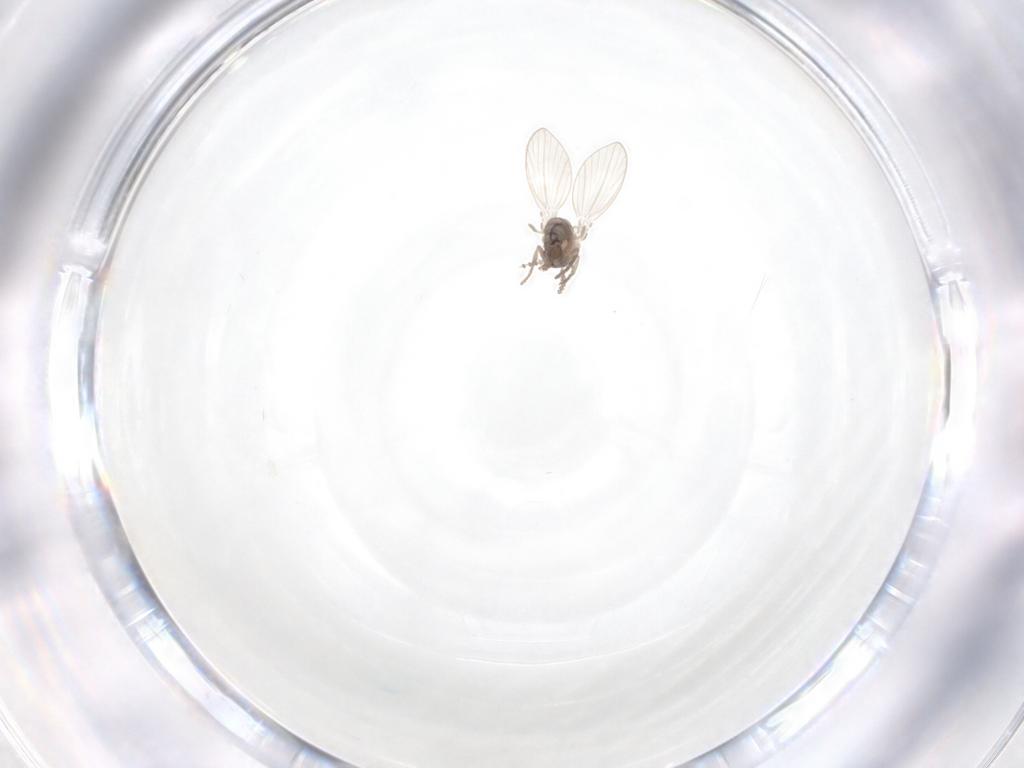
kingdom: Animalia
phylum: Arthropoda
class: Insecta
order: Diptera
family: Psychodidae
